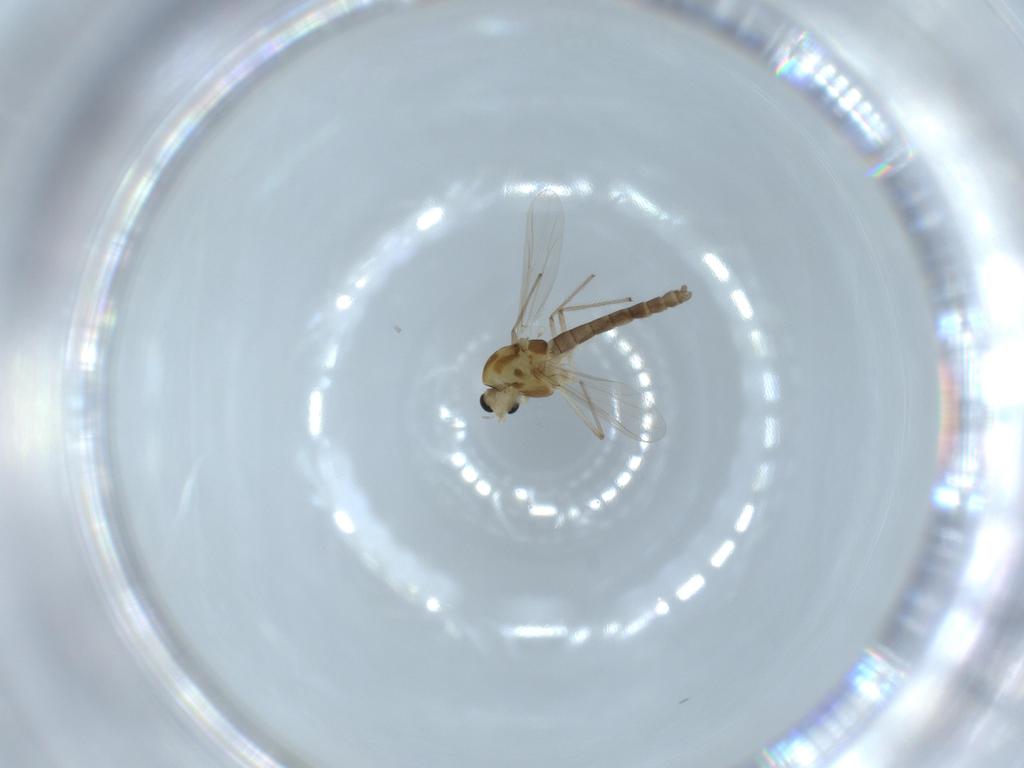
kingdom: Animalia
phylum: Arthropoda
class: Insecta
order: Diptera
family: Chironomidae
